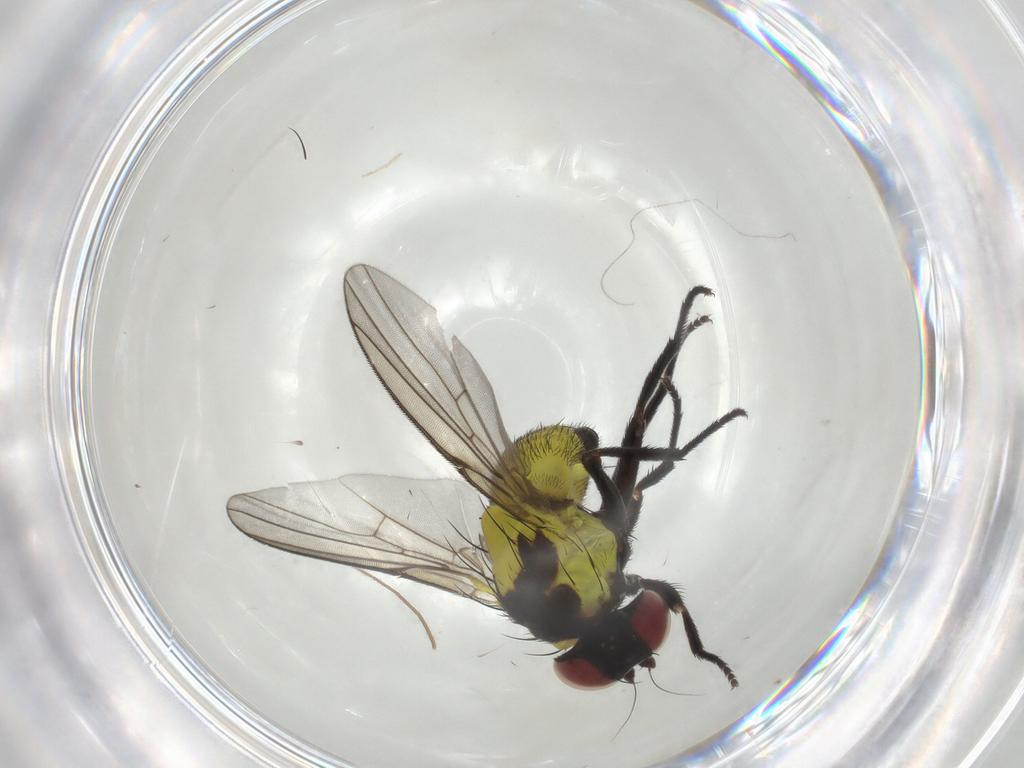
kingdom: Animalia
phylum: Arthropoda
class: Insecta
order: Diptera
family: Agromyzidae
